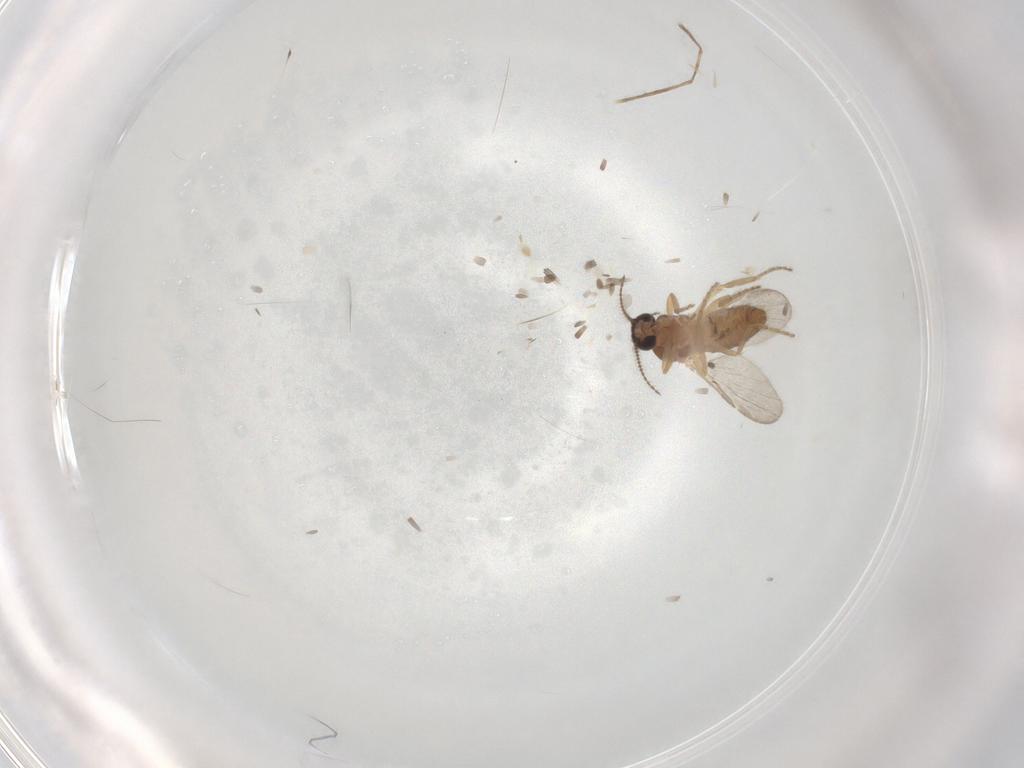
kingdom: Animalia
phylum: Arthropoda
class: Insecta
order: Diptera
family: Ceratopogonidae
